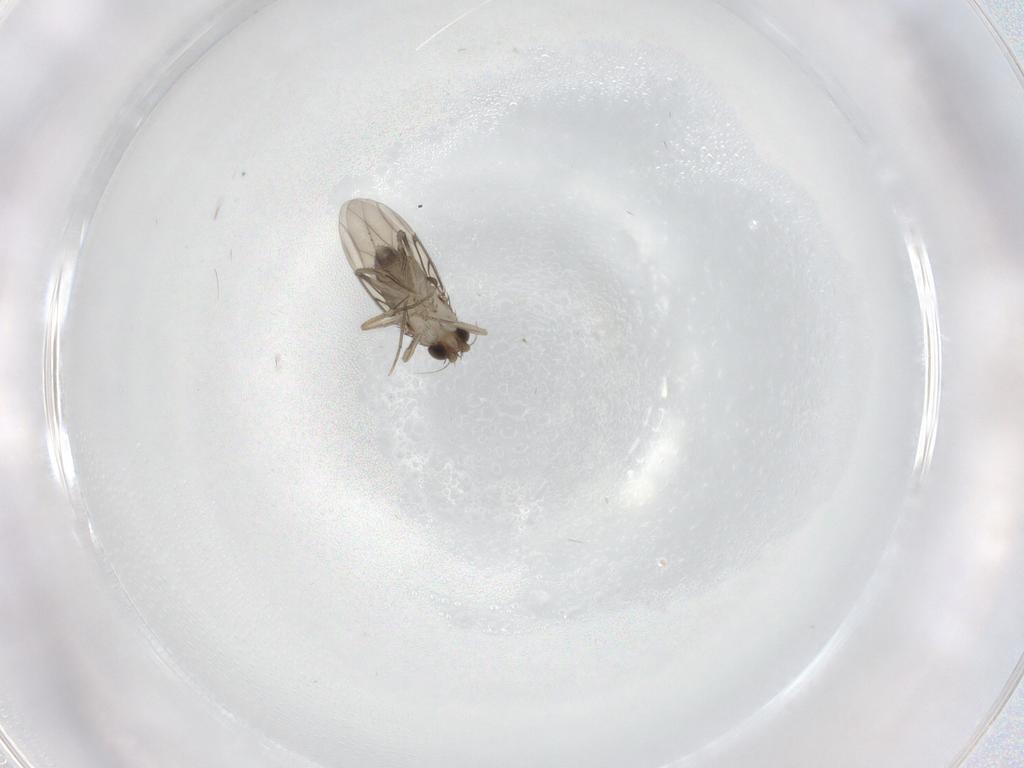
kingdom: Animalia
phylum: Arthropoda
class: Insecta
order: Diptera
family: Phoridae
